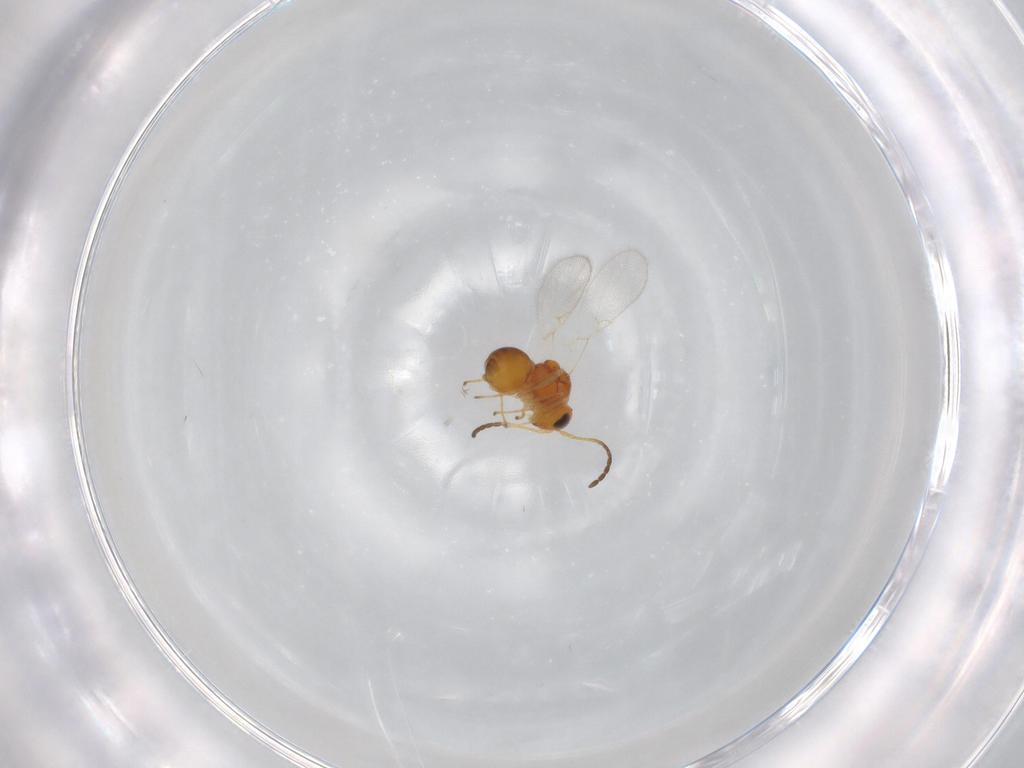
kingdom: Animalia
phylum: Arthropoda
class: Insecta
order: Hymenoptera
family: Figitidae
